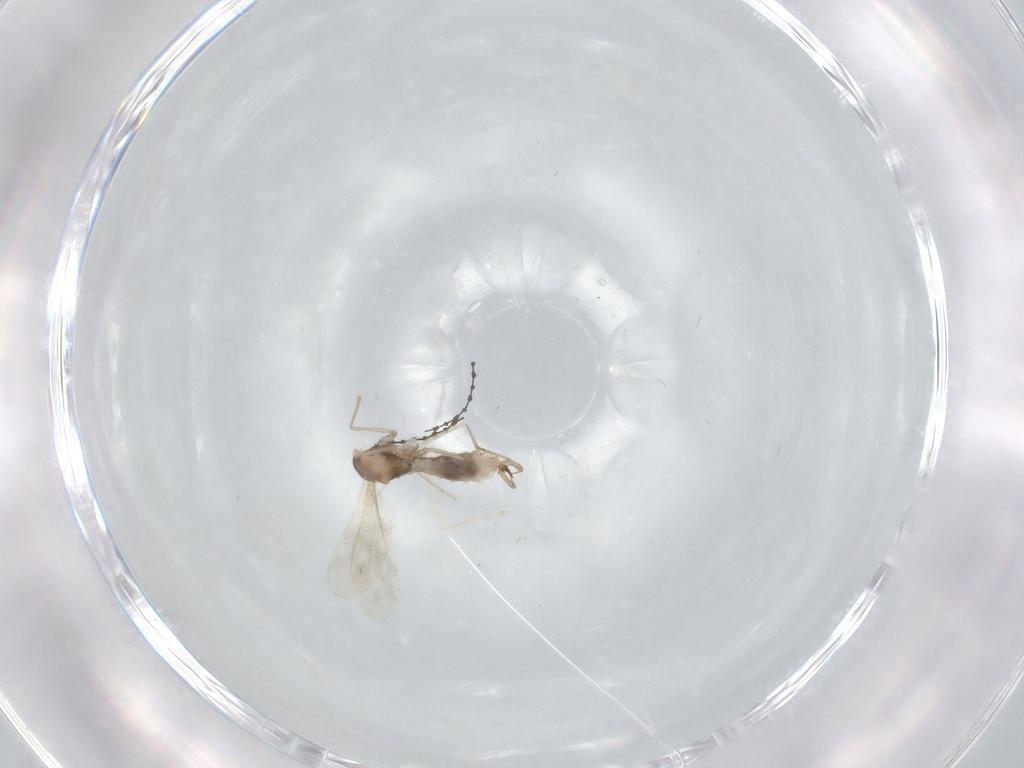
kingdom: Animalia
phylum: Arthropoda
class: Insecta
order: Diptera
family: Cecidomyiidae
